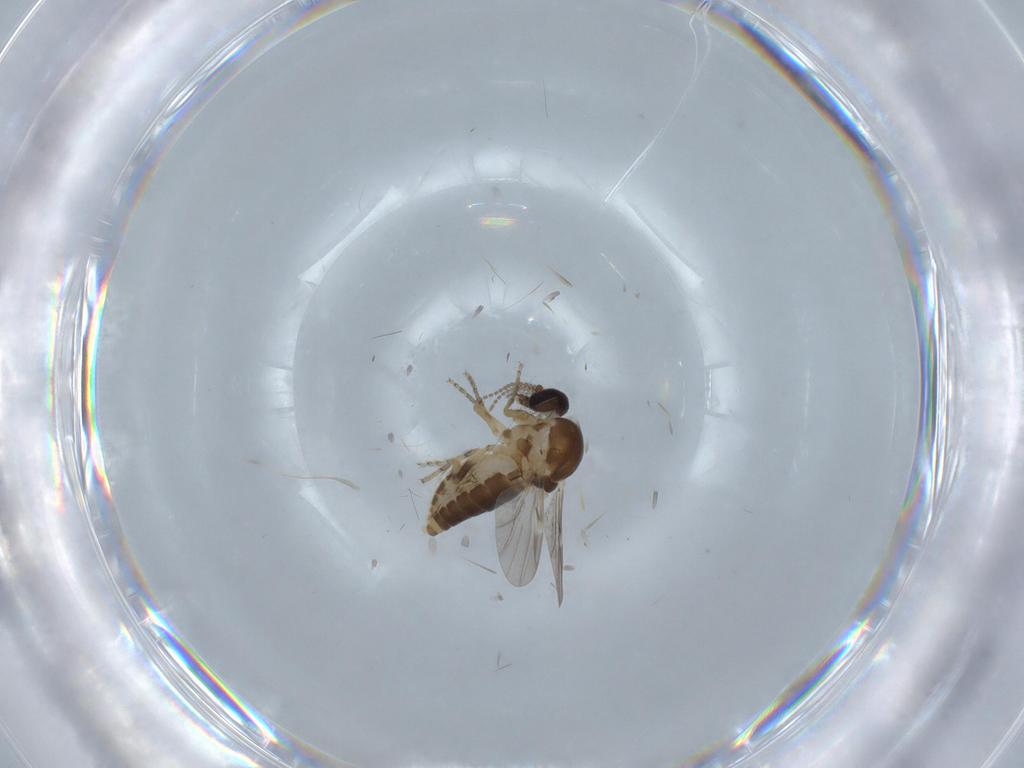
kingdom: Animalia
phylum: Arthropoda
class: Insecta
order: Diptera
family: Ceratopogonidae
